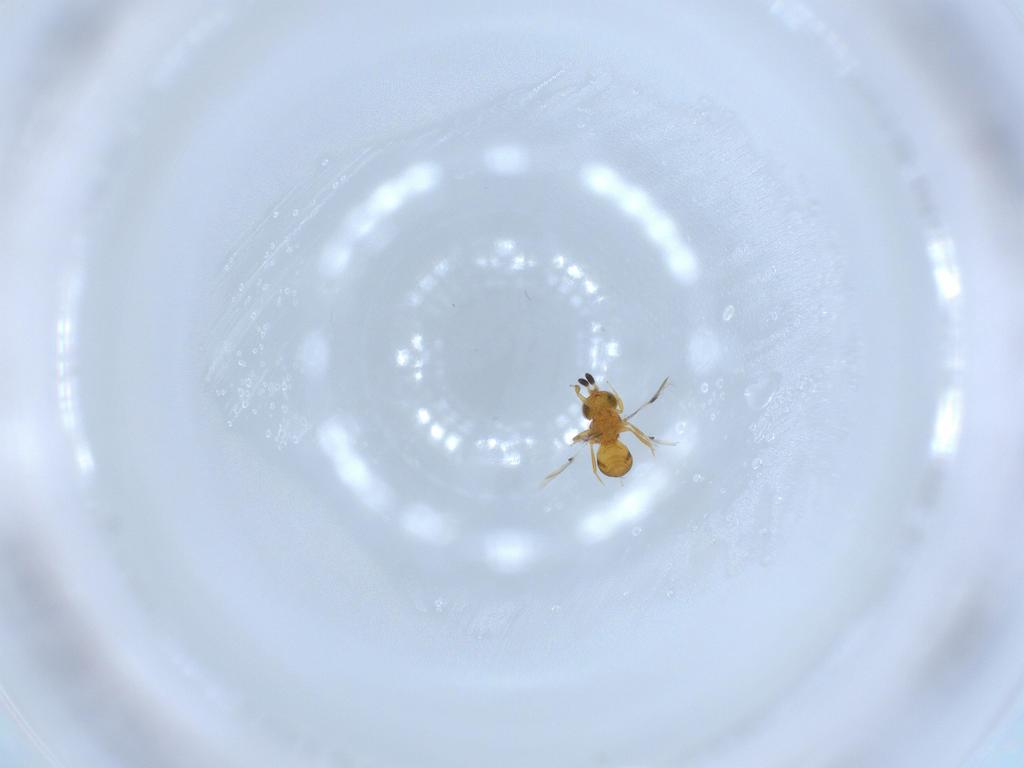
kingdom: Animalia
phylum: Arthropoda
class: Insecta
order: Hymenoptera
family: Scelionidae
